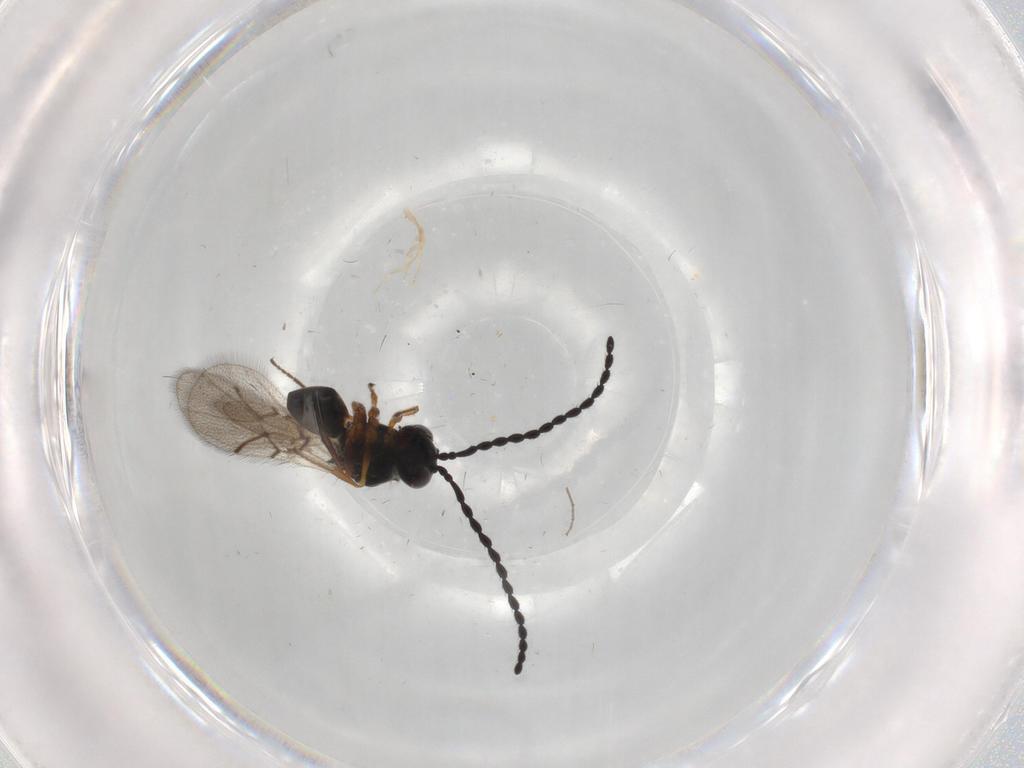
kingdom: Animalia
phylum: Arthropoda
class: Insecta
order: Hymenoptera
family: Figitidae
